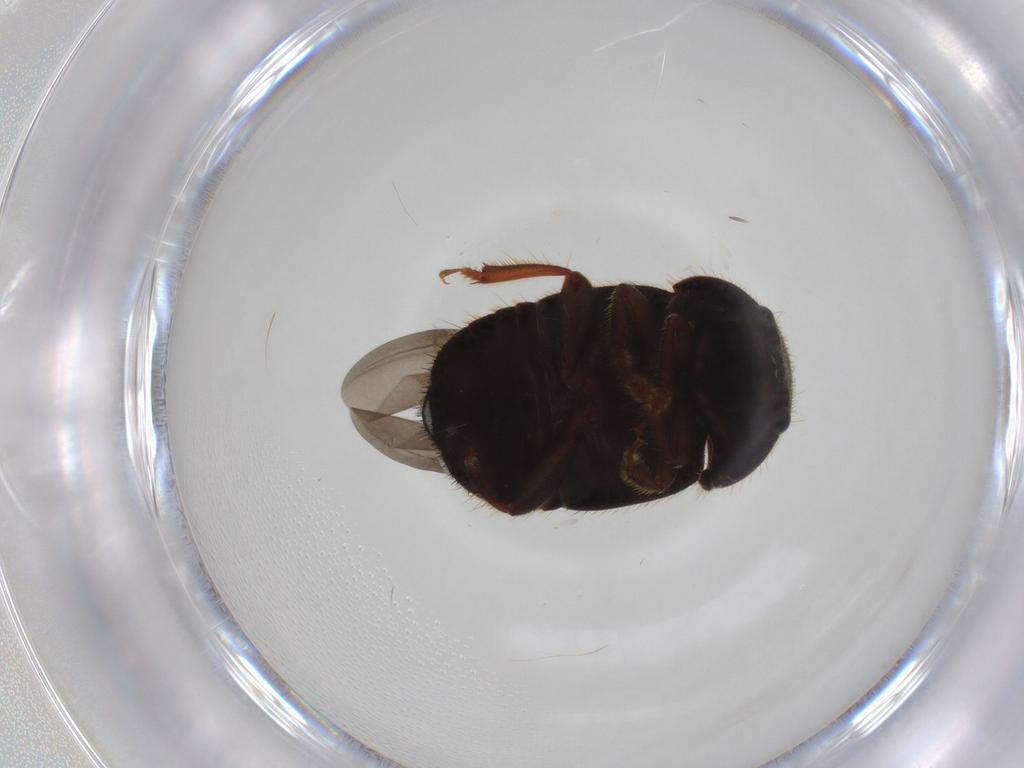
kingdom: Animalia
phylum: Arthropoda
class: Insecta
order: Coleoptera
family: Nitidulidae
